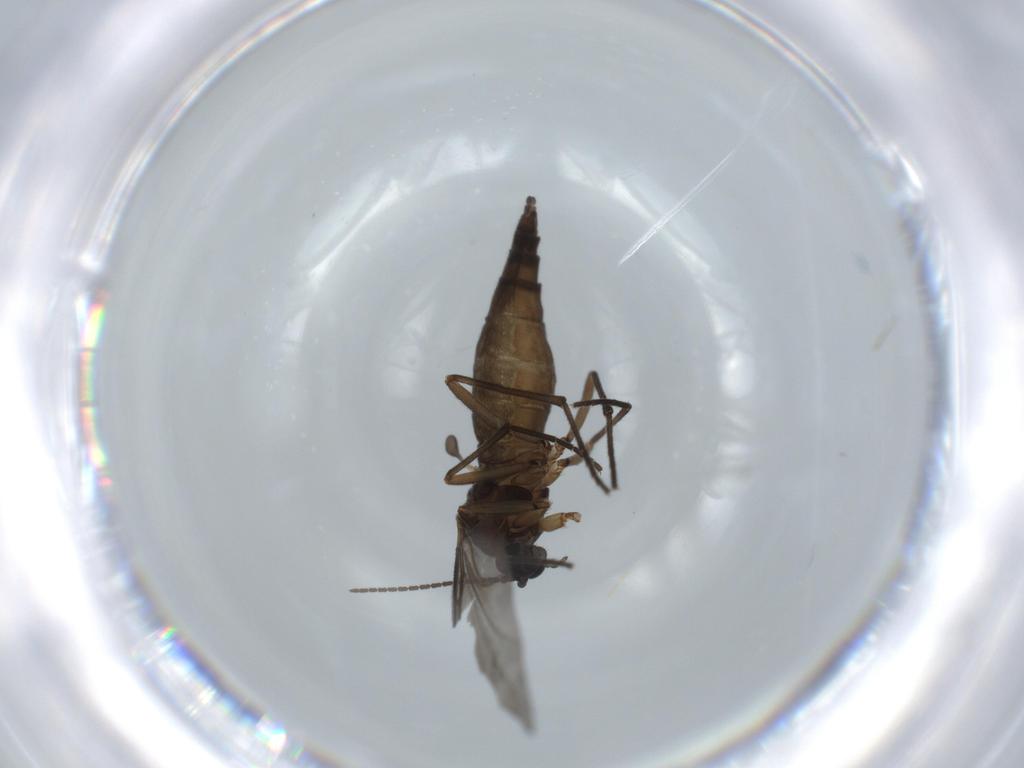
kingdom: Animalia
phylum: Arthropoda
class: Insecta
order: Diptera
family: Sciaridae
